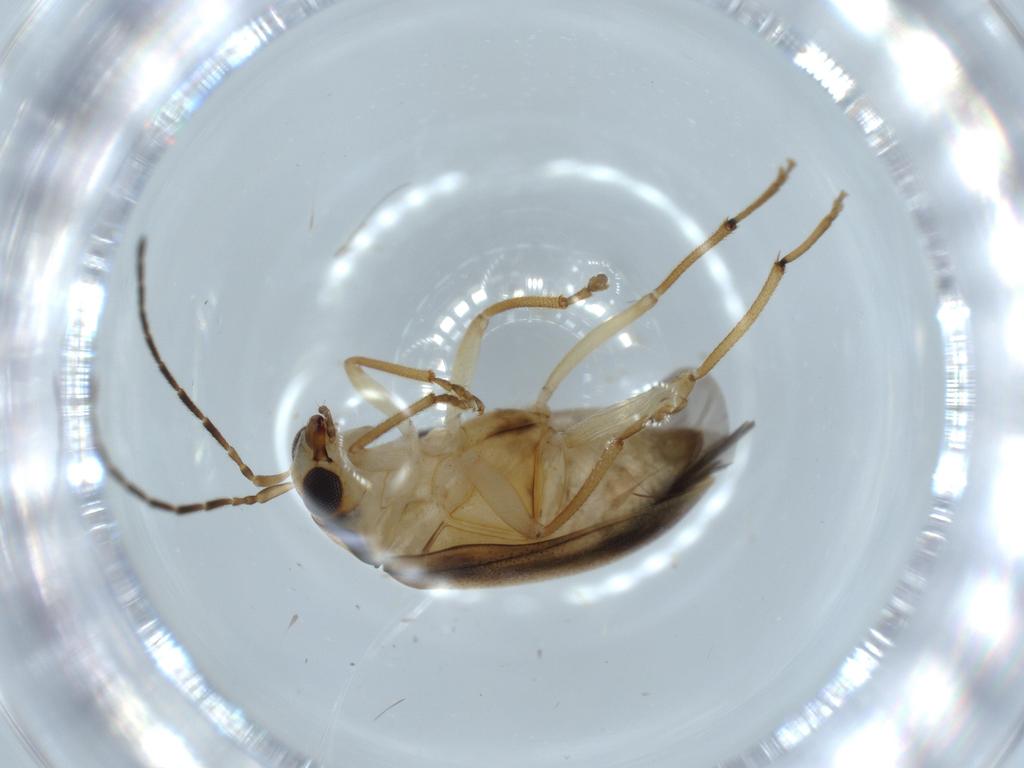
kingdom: Animalia
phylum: Arthropoda
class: Insecta
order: Coleoptera
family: Chrysomelidae
